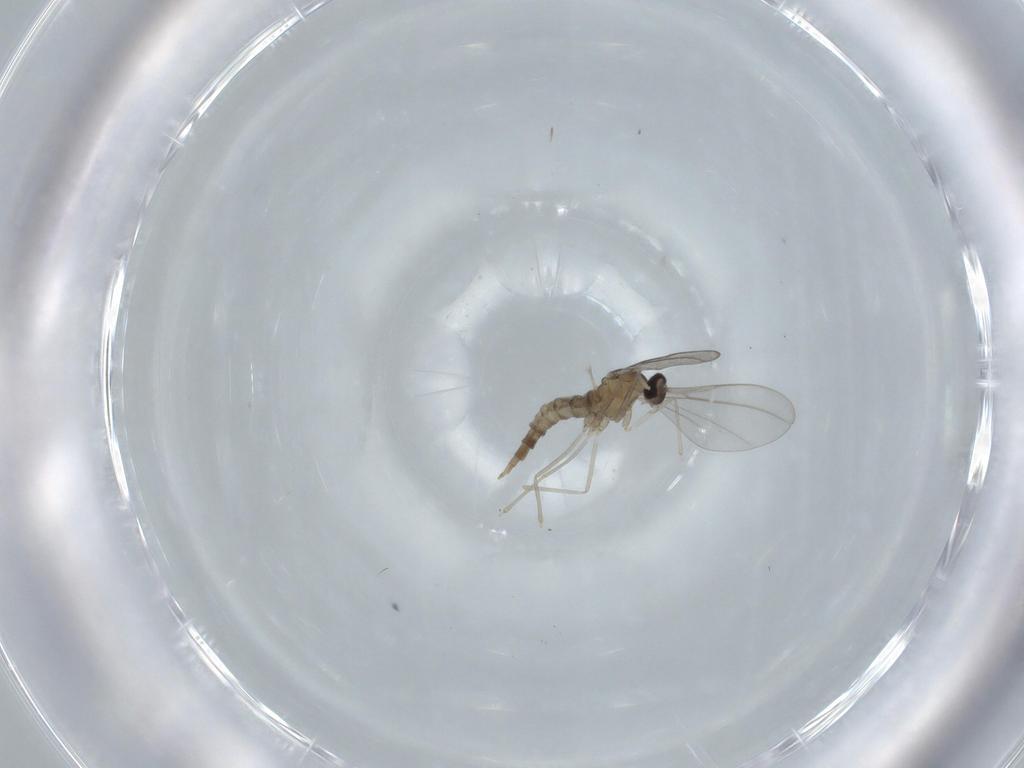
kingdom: Animalia
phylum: Arthropoda
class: Insecta
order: Diptera
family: Cecidomyiidae
